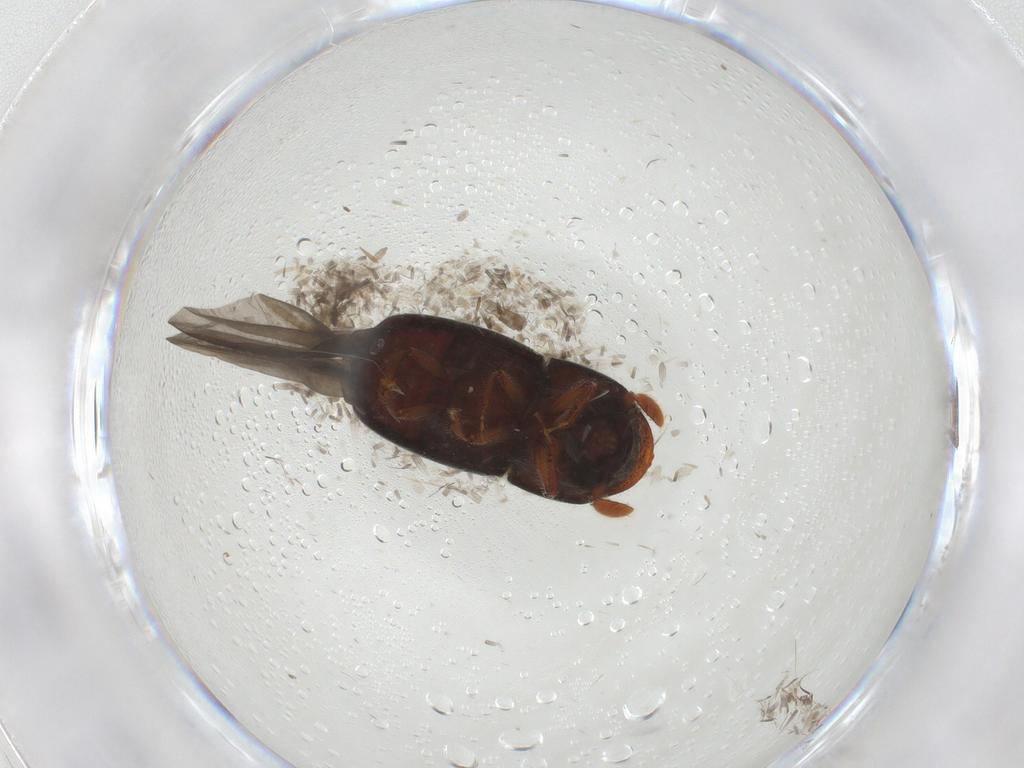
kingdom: Animalia
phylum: Arthropoda
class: Insecta
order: Coleoptera
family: Curculionidae
